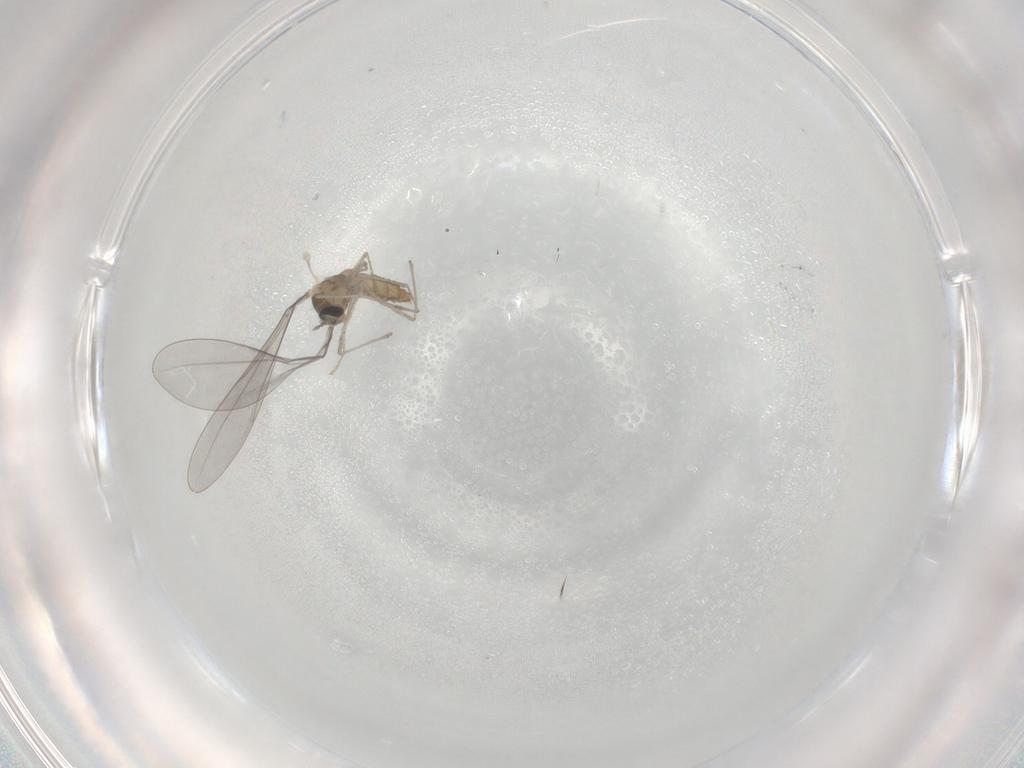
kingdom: Animalia
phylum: Arthropoda
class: Insecta
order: Diptera
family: Cecidomyiidae
